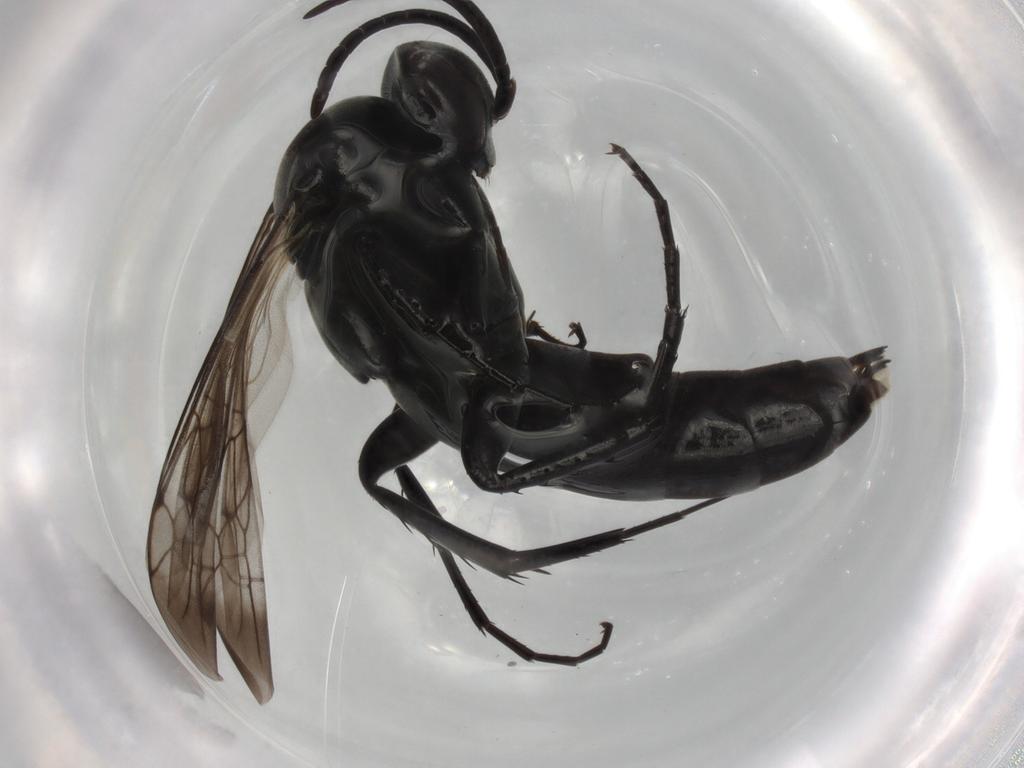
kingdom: Animalia
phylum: Arthropoda
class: Insecta
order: Hymenoptera
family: Pompilidae
